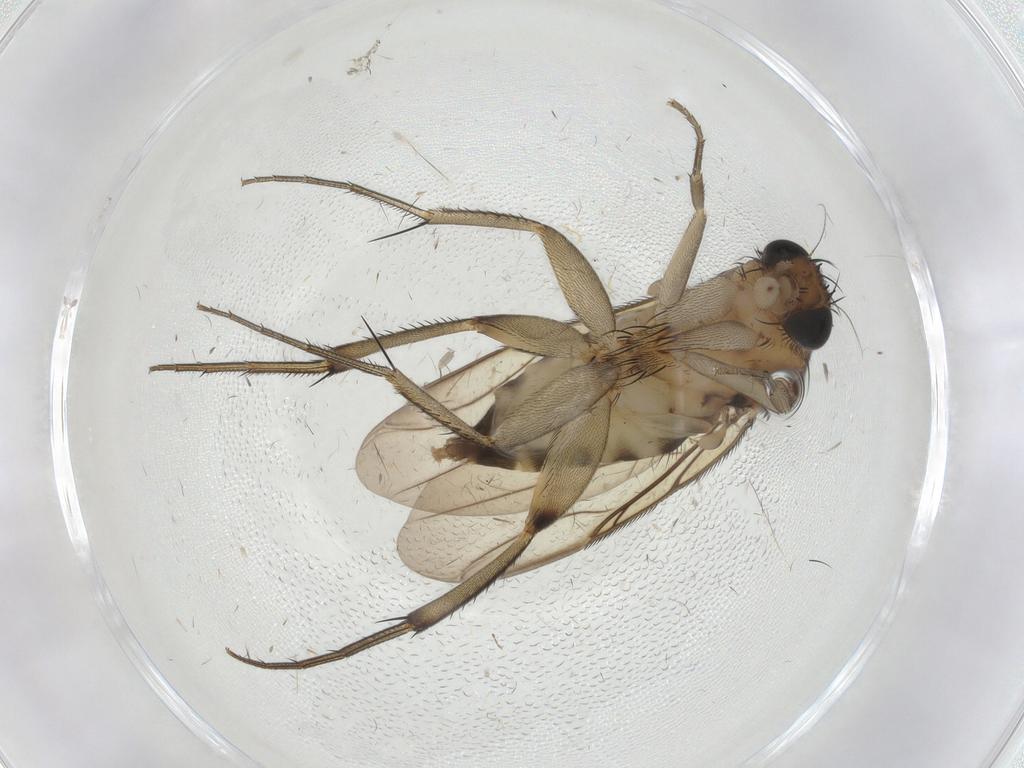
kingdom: Animalia
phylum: Arthropoda
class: Insecta
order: Diptera
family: Phoridae
